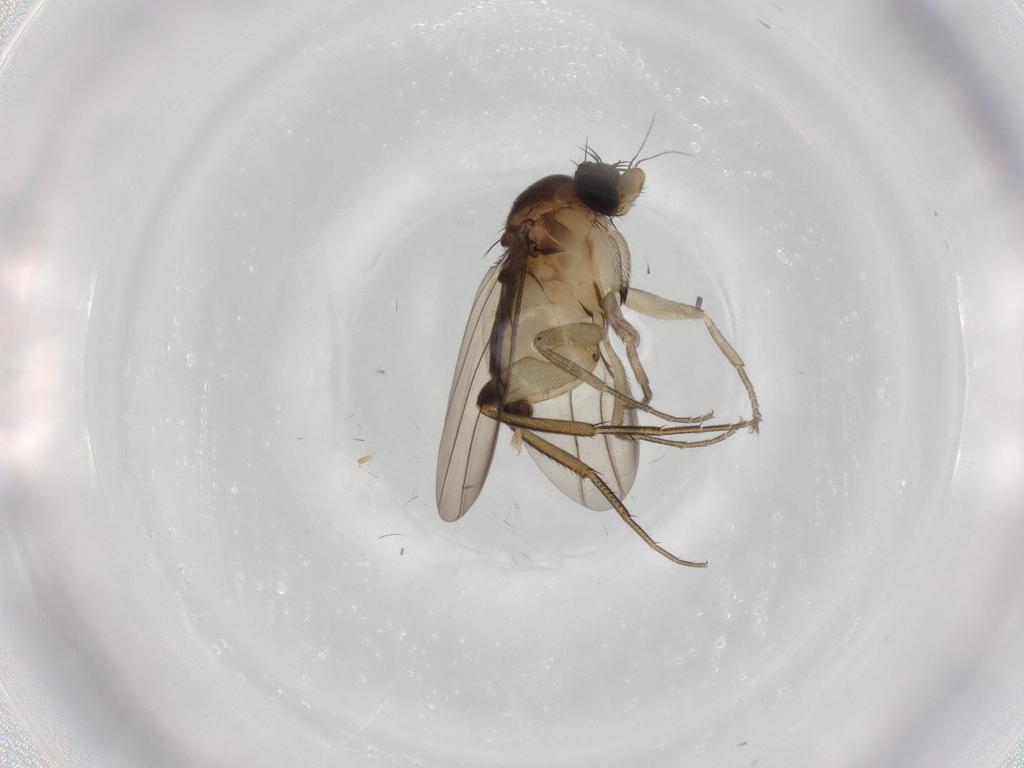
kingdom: Animalia
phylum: Arthropoda
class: Insecta
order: Diptera
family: Phoridae
